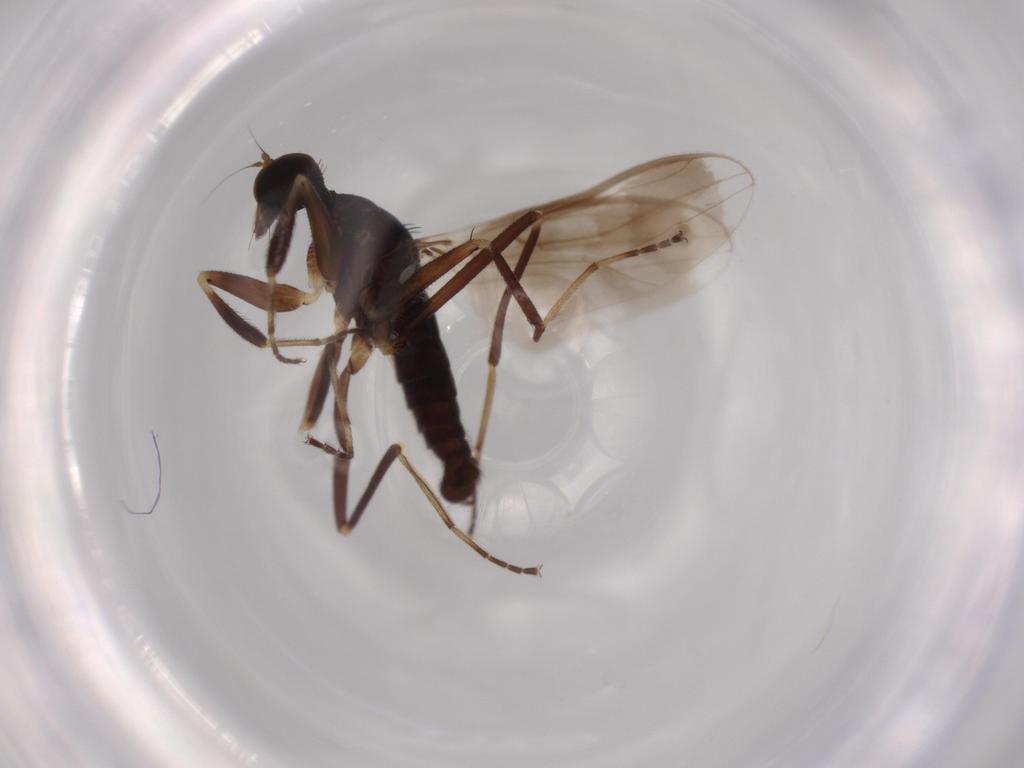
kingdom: Animalia
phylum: Arthropoda
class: Insecta
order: Diptera
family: Hybotidae
